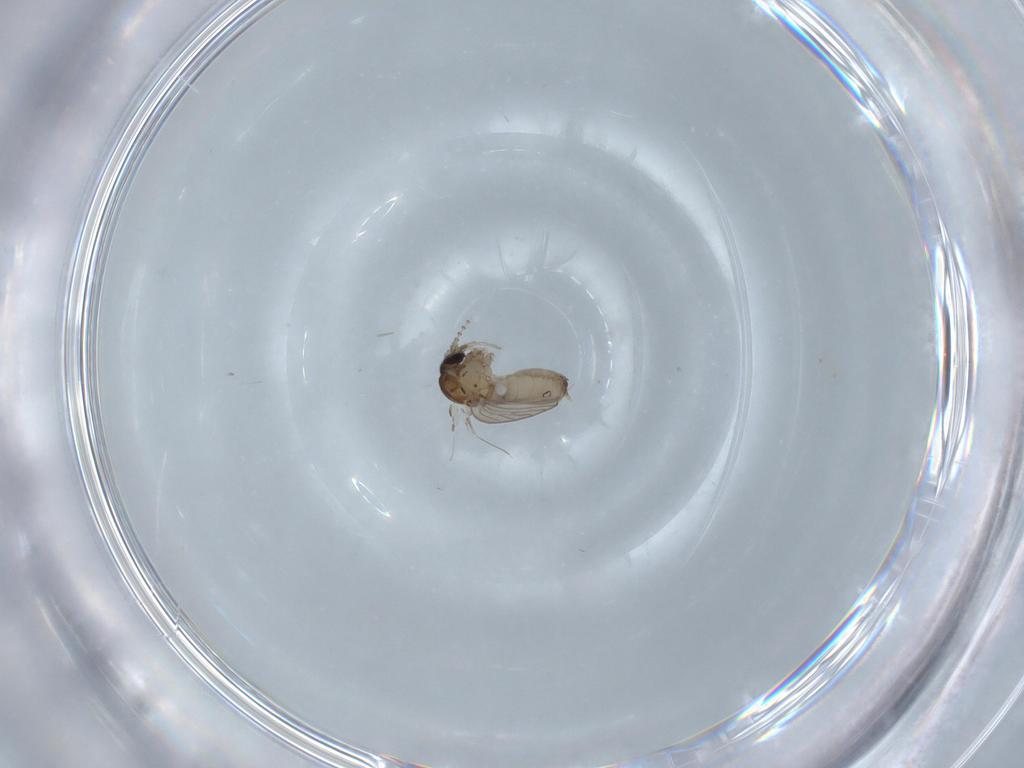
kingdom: Animalia
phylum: Arthropoda
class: Insecta
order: Diptera
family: Psychodidae
